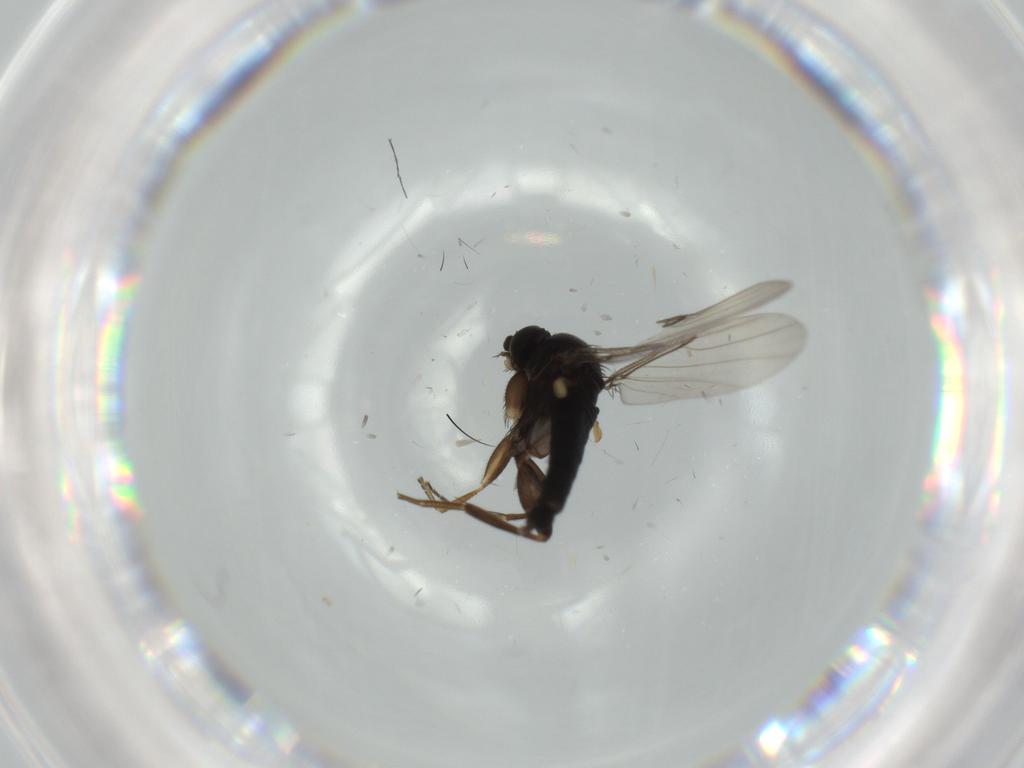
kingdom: Animalia
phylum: Arthropoda
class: Insecta
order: Diptera
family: Phoridae
